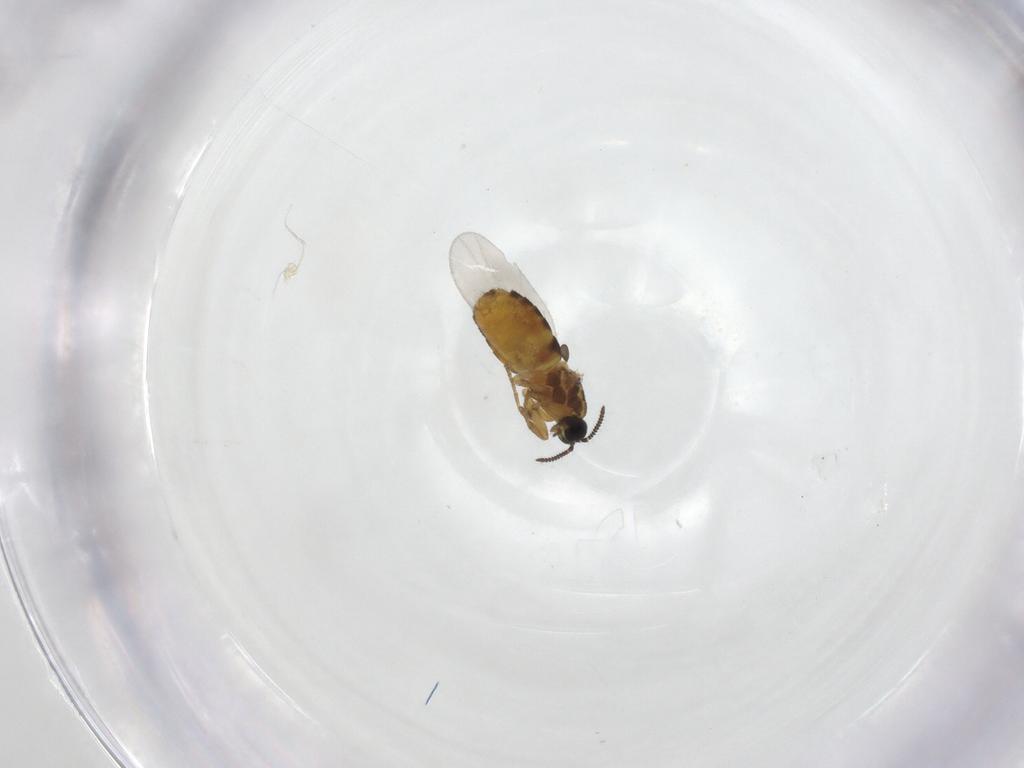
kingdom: Animalia
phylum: Arthropoda
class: Insecta
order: Diptera
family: Scatopsidae
